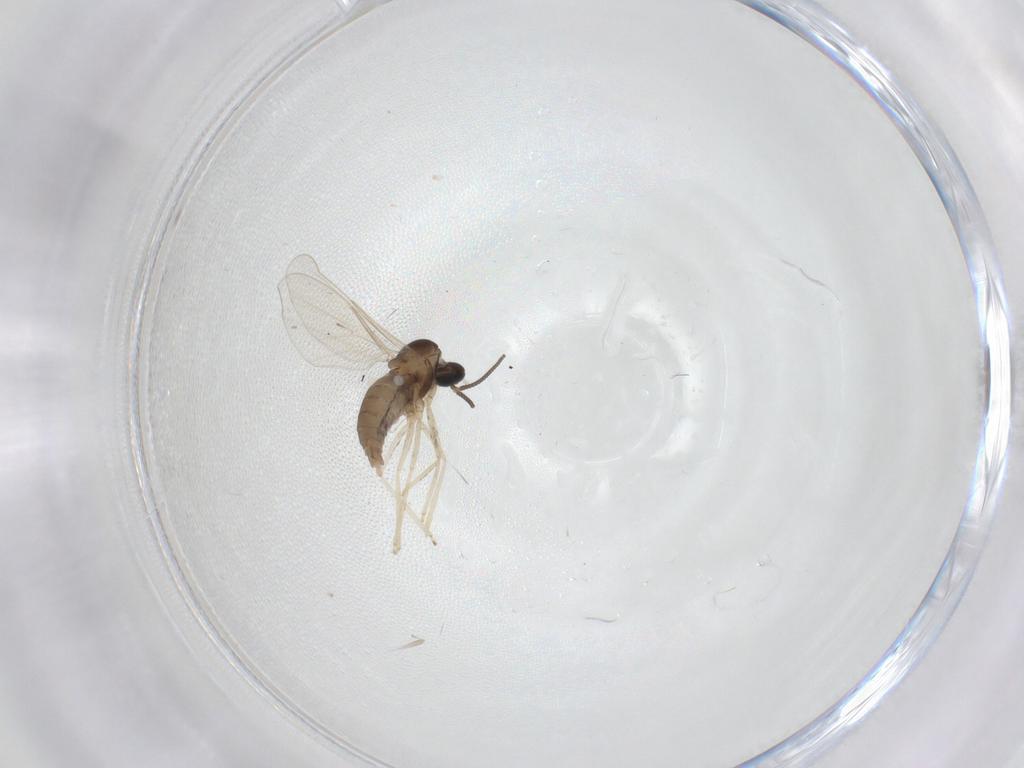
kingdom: Animalia
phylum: Arthropoda
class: Insecta
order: Diptera
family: Cecidomyiidae
